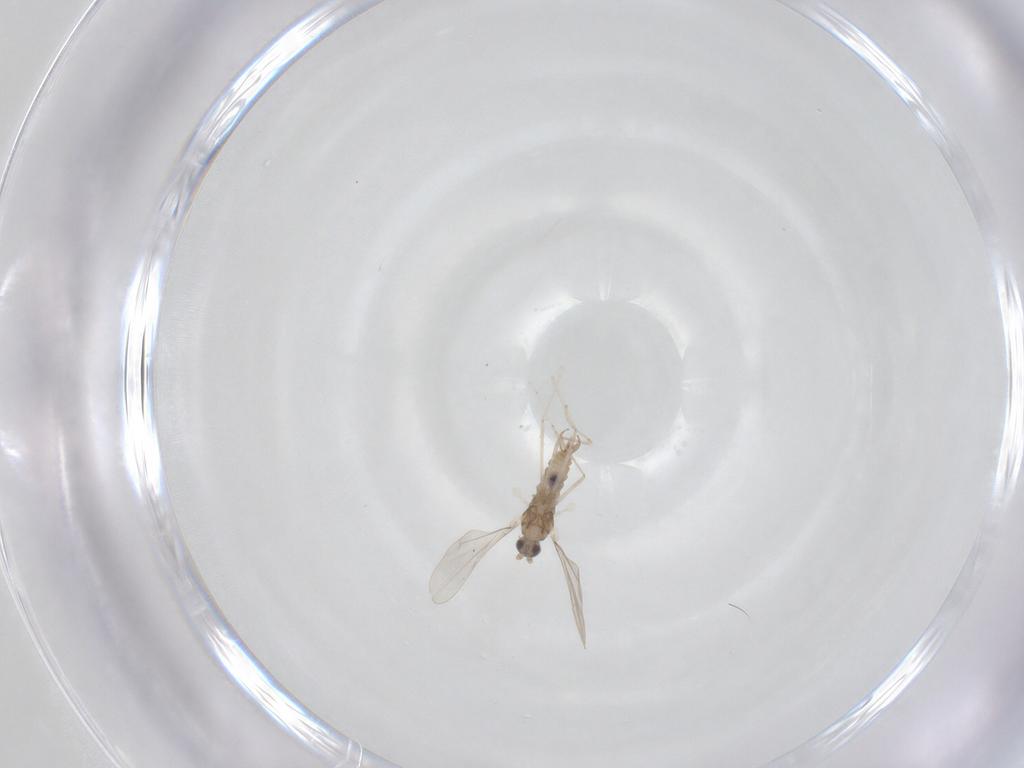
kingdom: Animalia
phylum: Arthropoda
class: Insecta
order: Diptera
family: Cecidomyiidae
